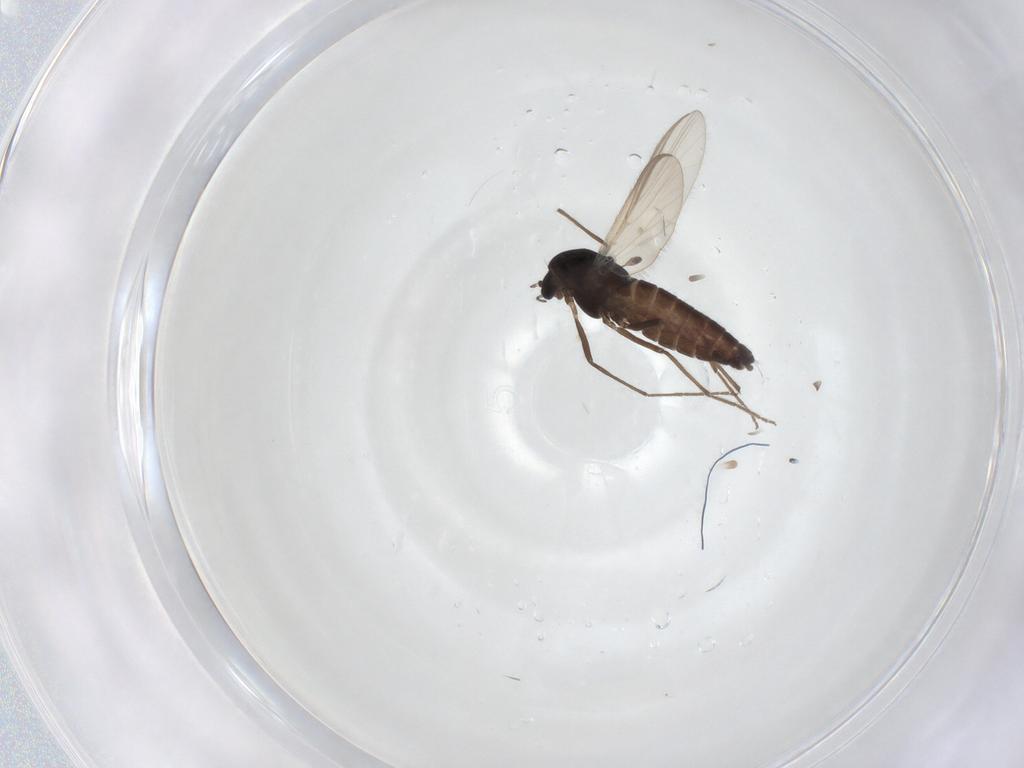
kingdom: Animalia
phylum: Arthropoda
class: Insecta
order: Diptera
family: Chironomidae
